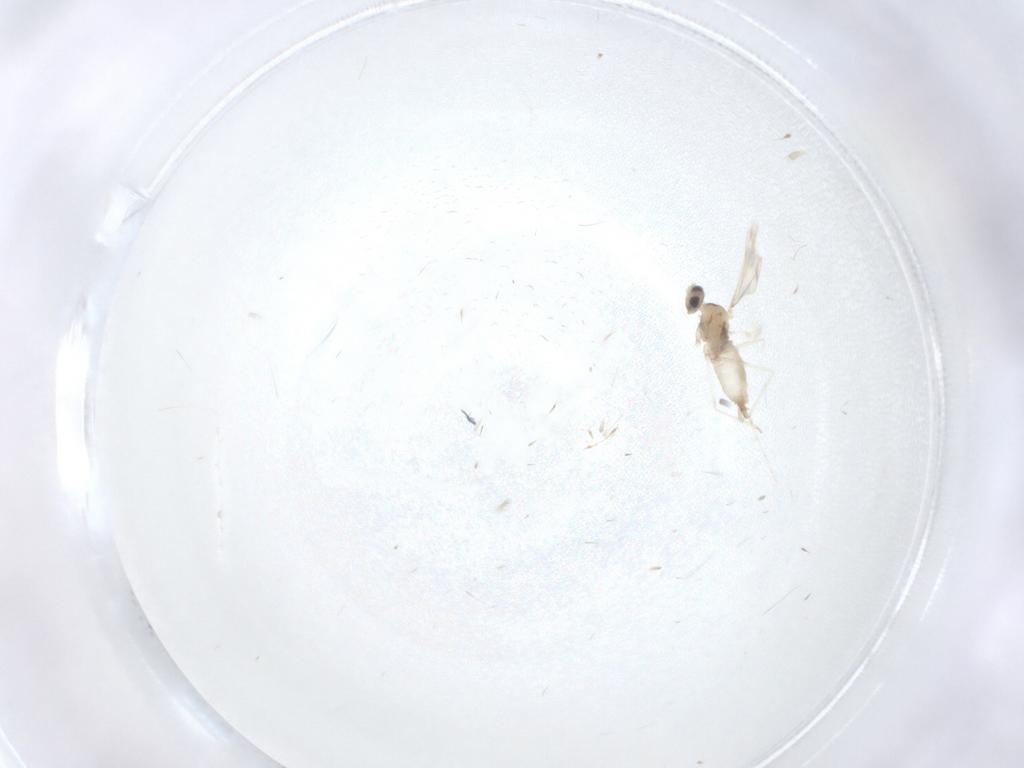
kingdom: Animalia
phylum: Arthropoda
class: Insecta
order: Diptera
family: Cecidomyiidae
